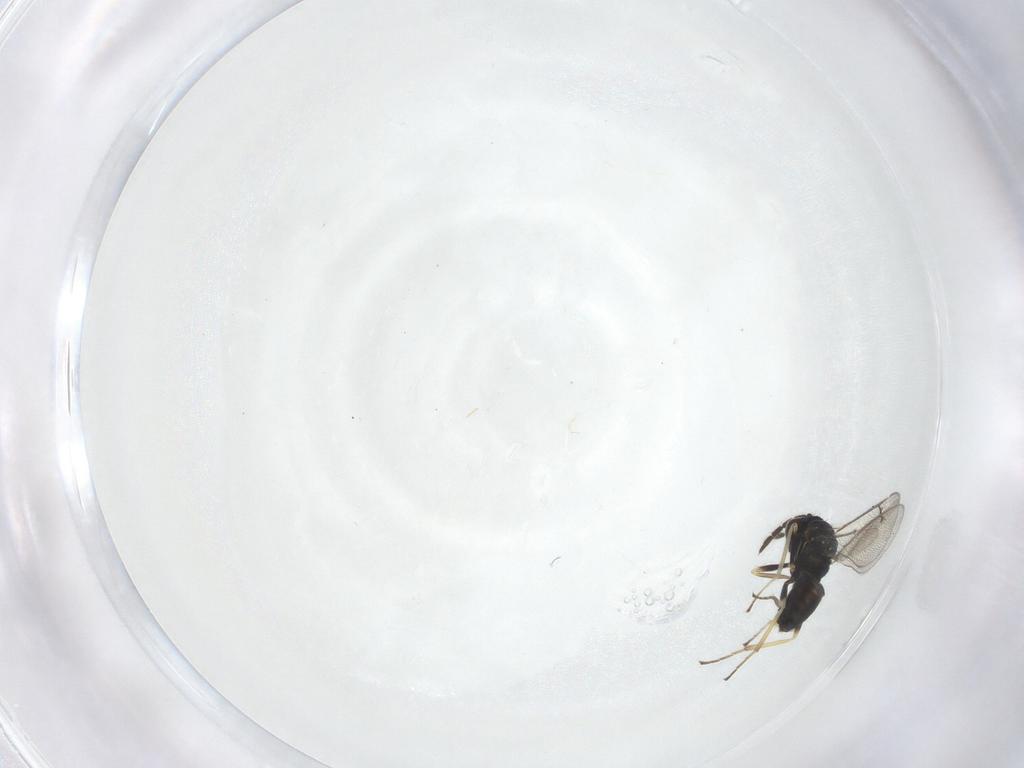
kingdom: Animalia
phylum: Arthropoda
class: Insecta
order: Hymenoptera
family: Eulophidae
